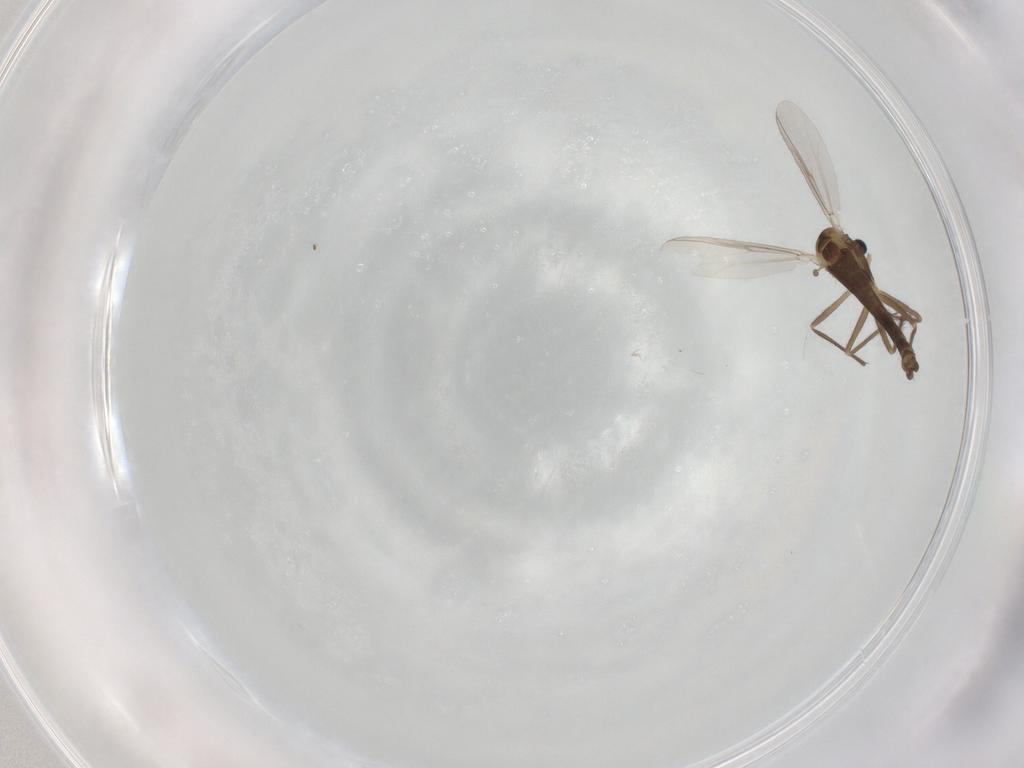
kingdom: Animalia
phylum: Arthropoda
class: Insecta
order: Diptera
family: Chironomidae
